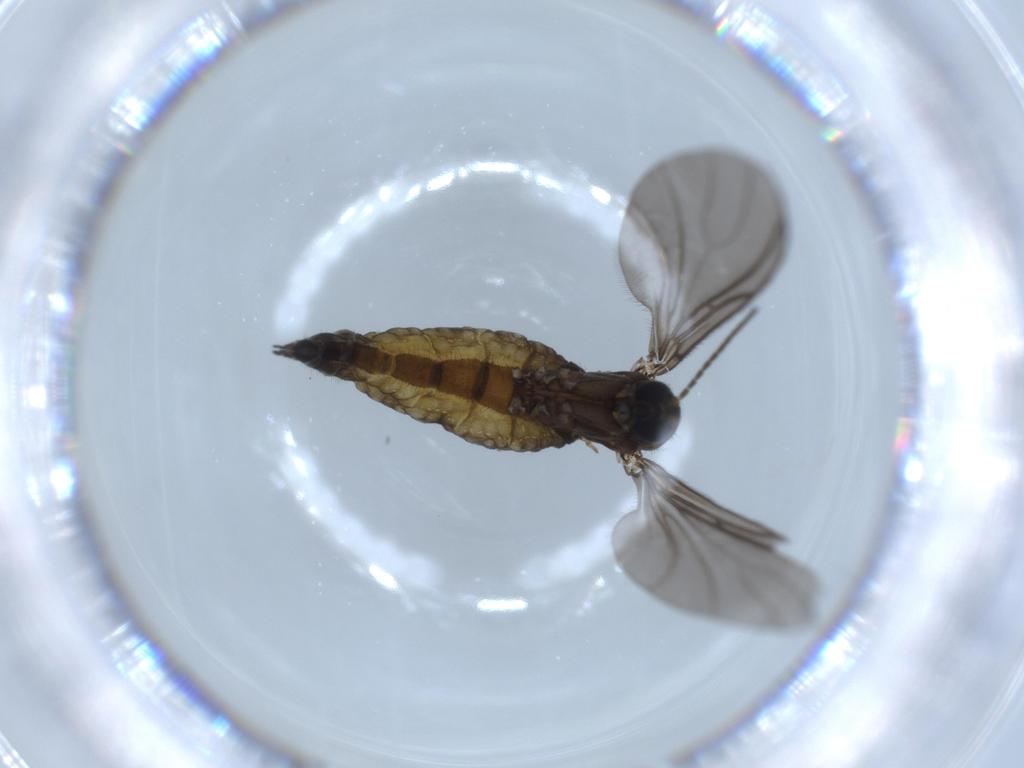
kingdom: Animalia
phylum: Arthropoda
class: Insecta
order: Diptera
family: Sciaridae
